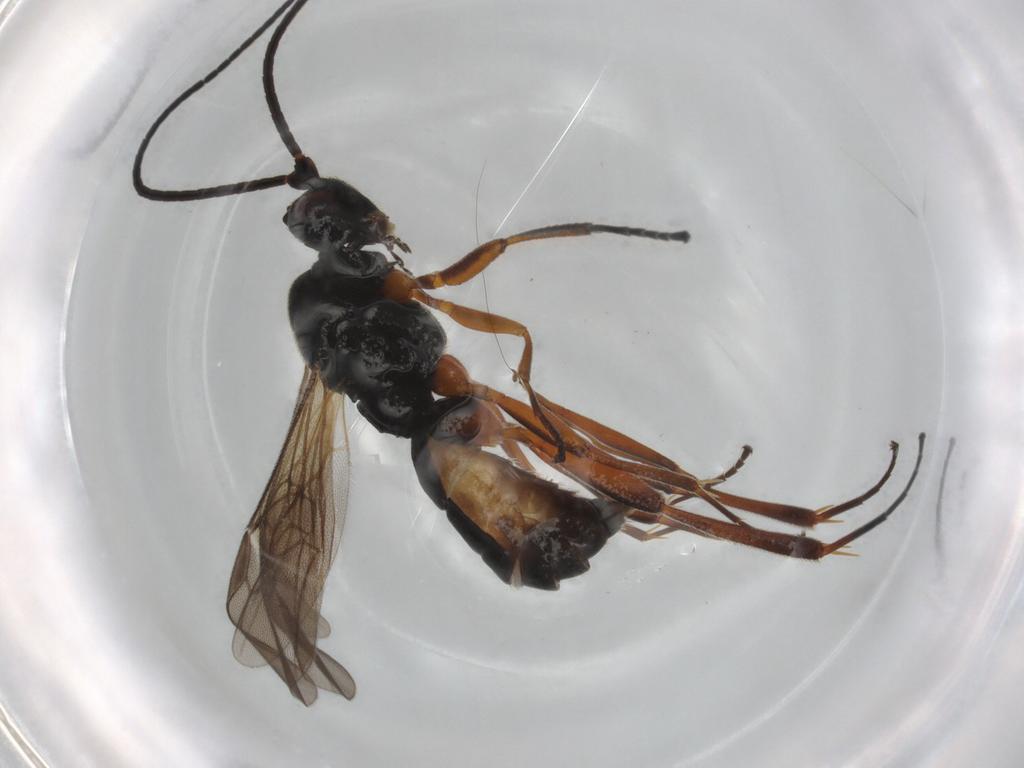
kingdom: Animalia
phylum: Arthropoda
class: Insecta
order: Hymenoptera
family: Braconidae
